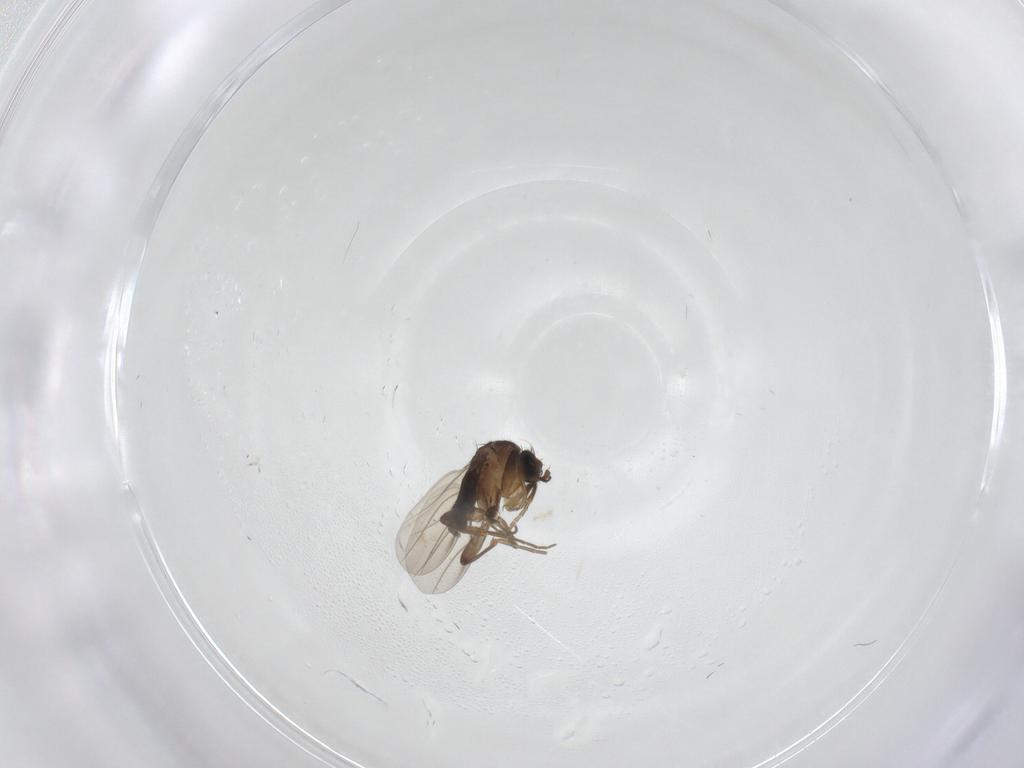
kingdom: Animalia
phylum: Arthropoda
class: Insecta
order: Diptera
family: Phoridae
